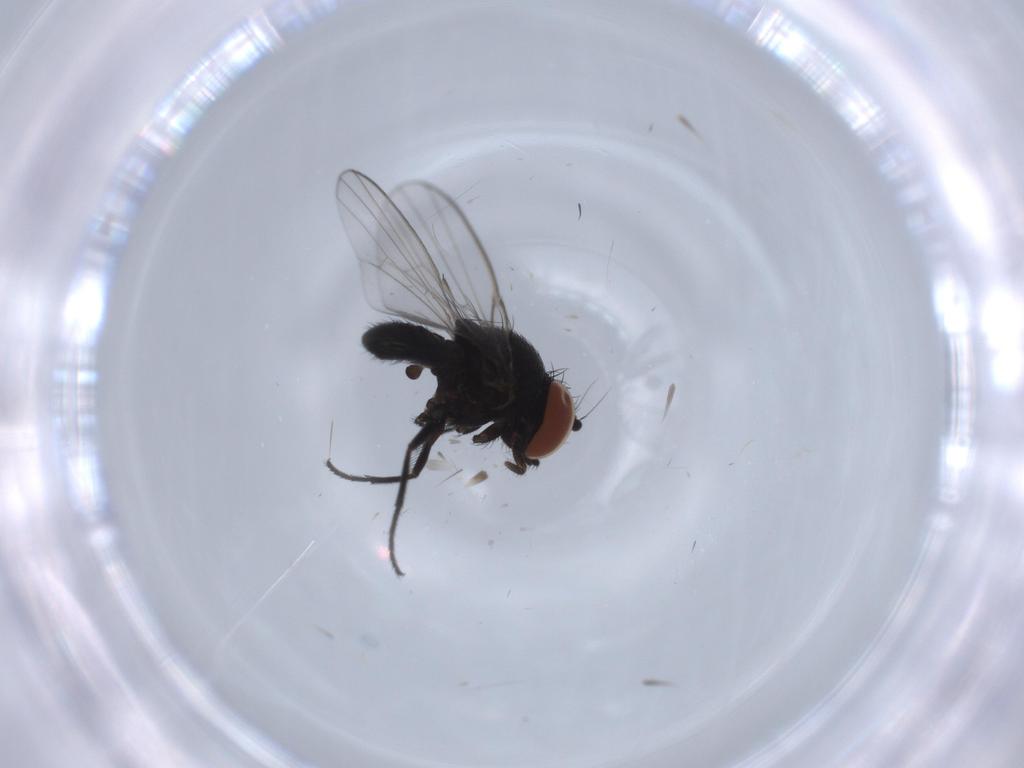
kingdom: Animalia
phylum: Arthropoda
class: Insecta
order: Diptera
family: Milichiidae
